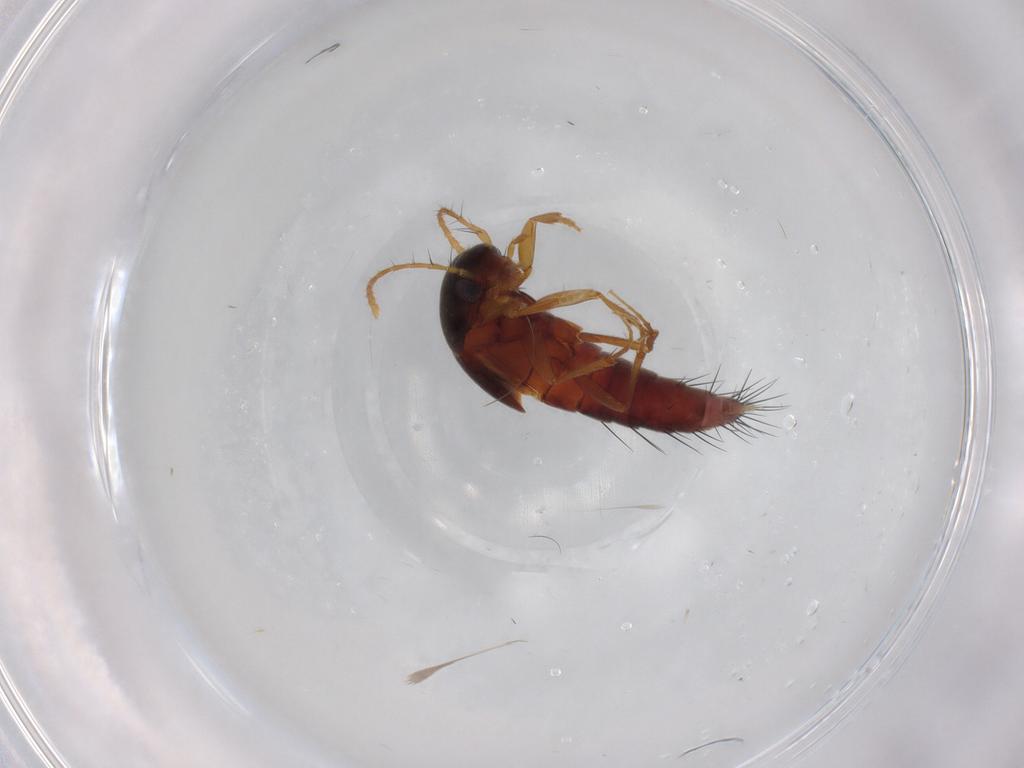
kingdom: Animalia
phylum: Arthropoda
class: Insecta
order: Coleoptera
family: Staphylinidae
